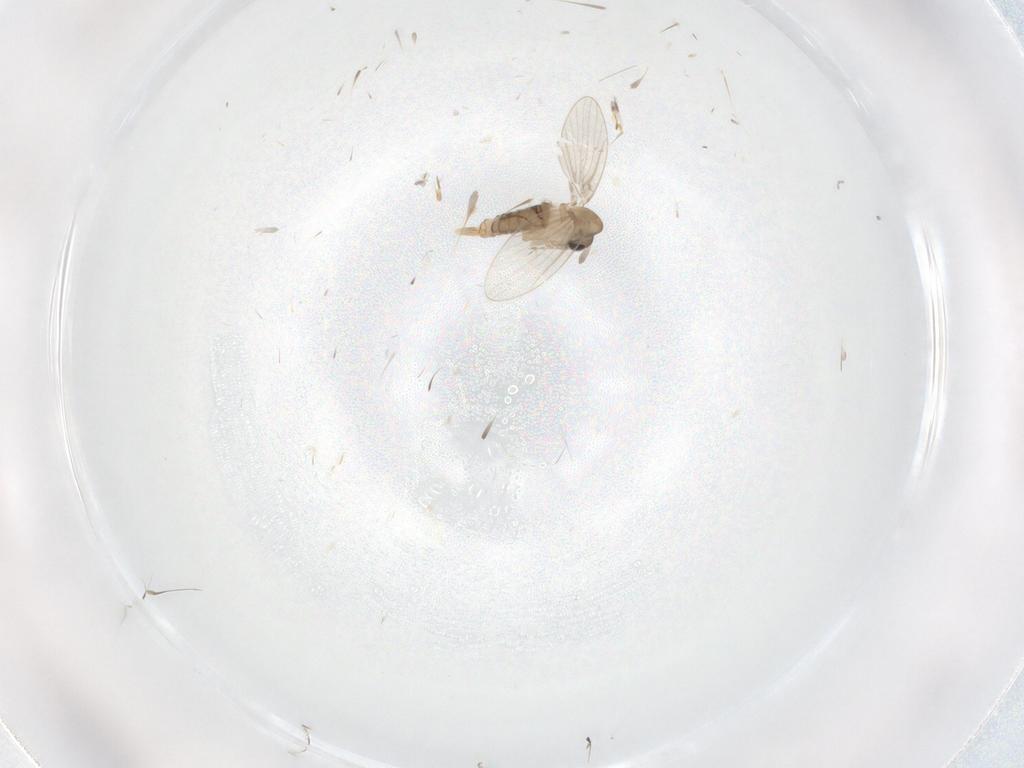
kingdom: Animalia
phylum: Arthropoda
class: Insecta
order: Diptera
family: Psychodidae
